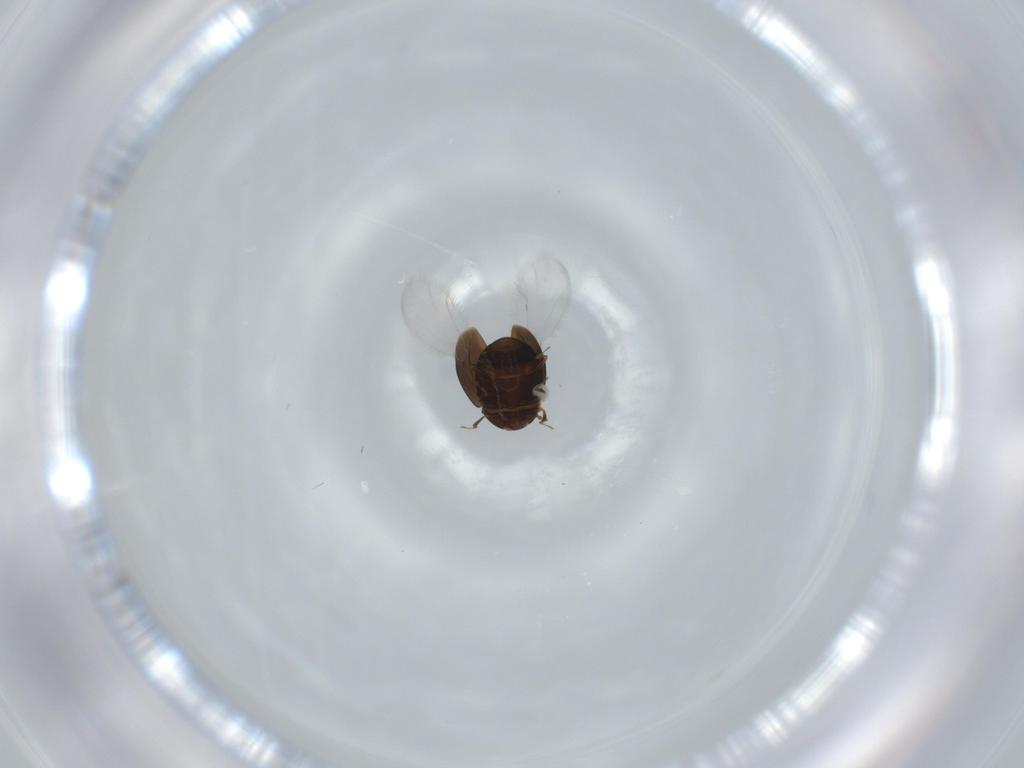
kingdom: Animalia
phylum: Arthropoda
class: Insecta
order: Coleoptera
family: Corylophidae
